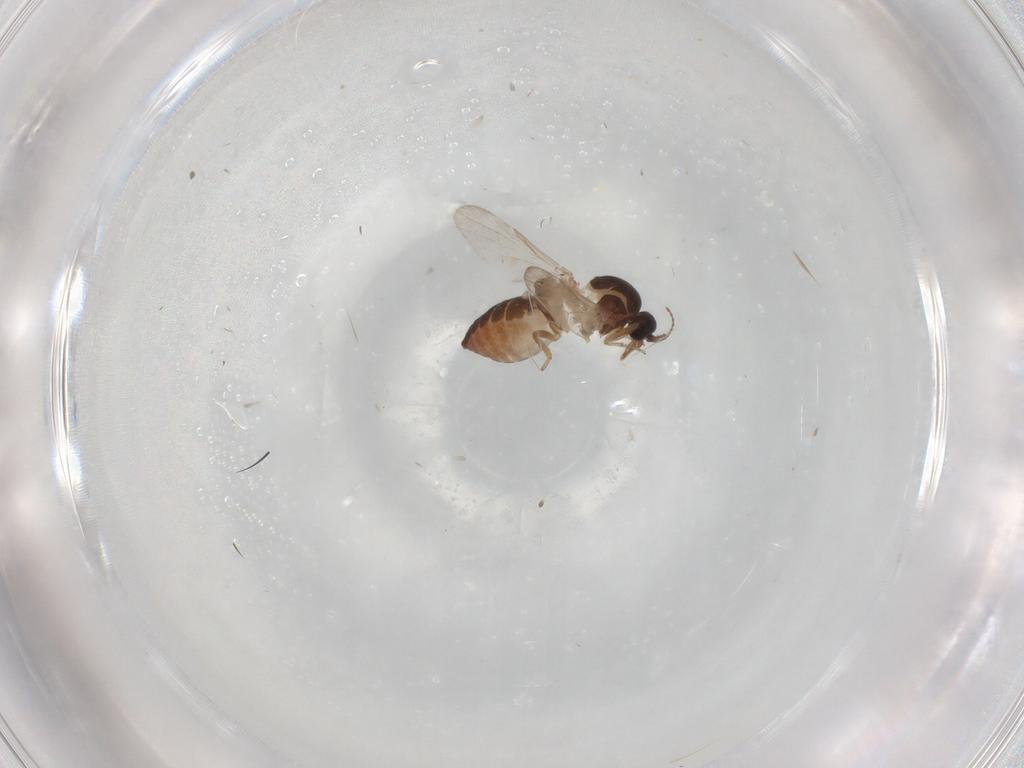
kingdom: Animalia
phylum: Arthropoda
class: Insecta
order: Diptera
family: Ceratopogonidae
